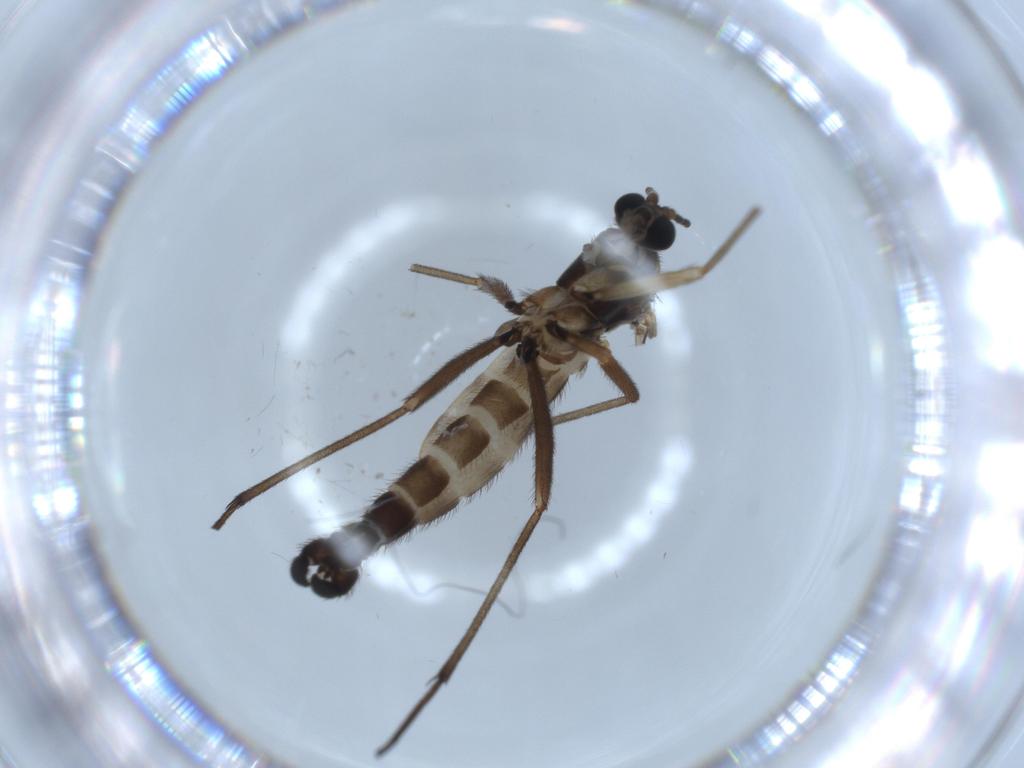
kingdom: Animalia
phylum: Arthropoda
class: Insecta
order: Diptera
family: Sciaridae
